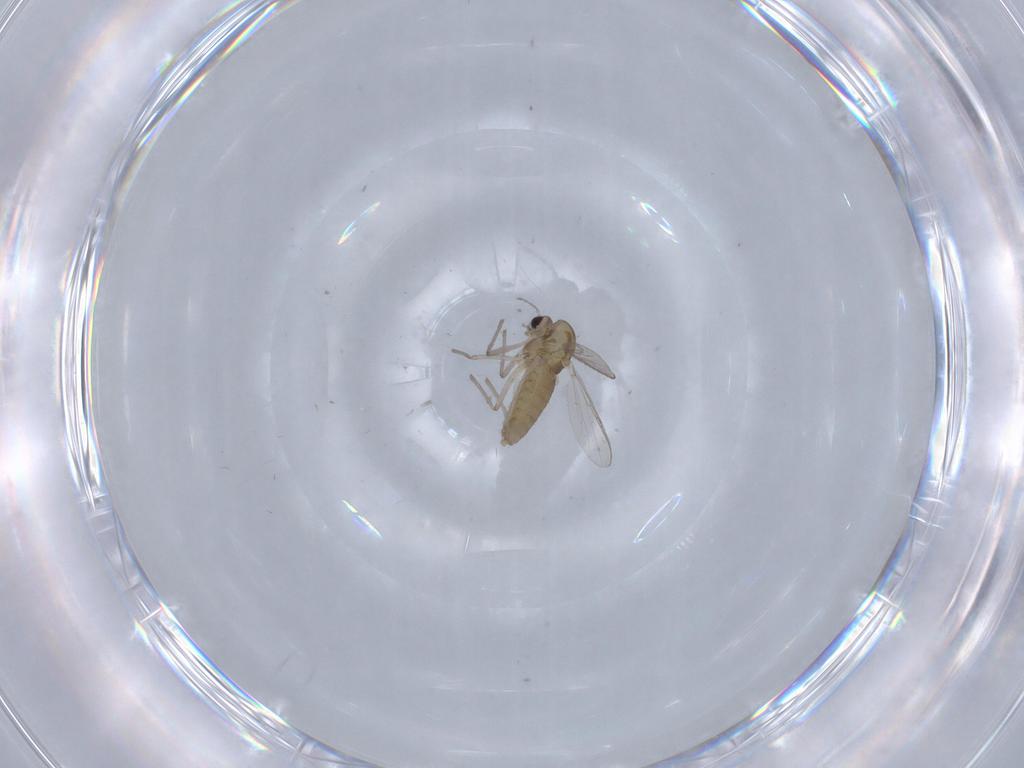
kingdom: Animalia
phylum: Arthropoda
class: Insecta
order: Diptera
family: Chironomidae
